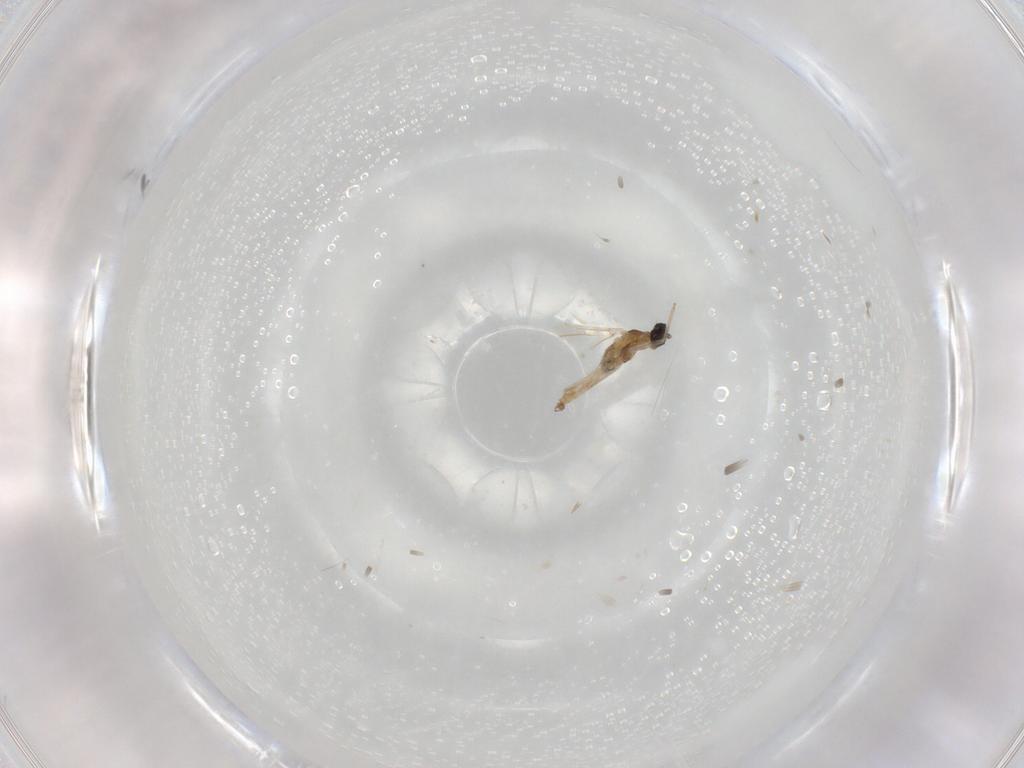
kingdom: Animalia
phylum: Arthropoda
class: Insecta
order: Diptera
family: Cecidomyiidae
